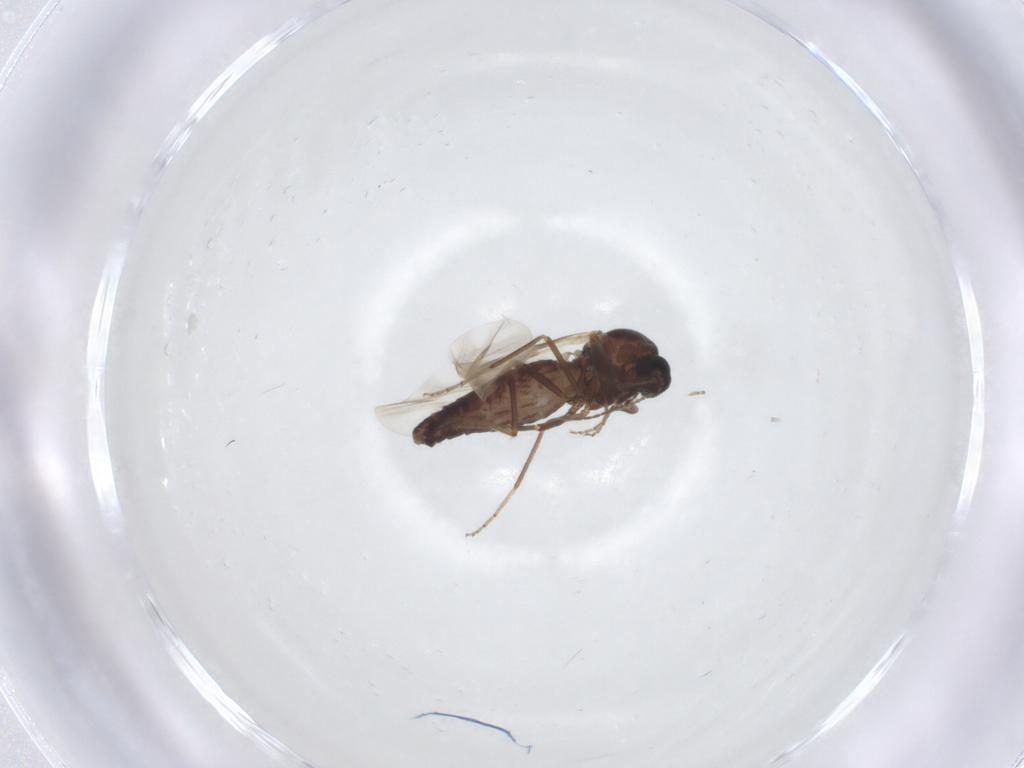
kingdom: Animalia
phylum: Arthropoda
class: Insecta
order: Diptera
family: Ceratopogonidae
